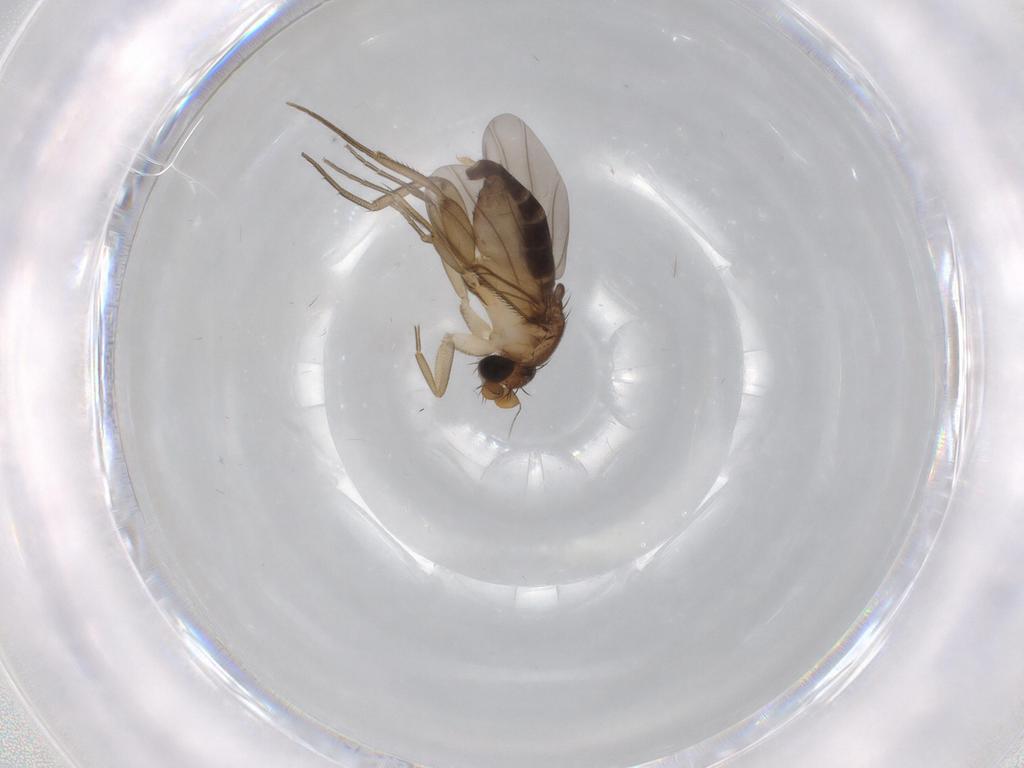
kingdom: Animalia
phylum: Arthropoda
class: Insecta
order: Diptera
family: Phoridae
